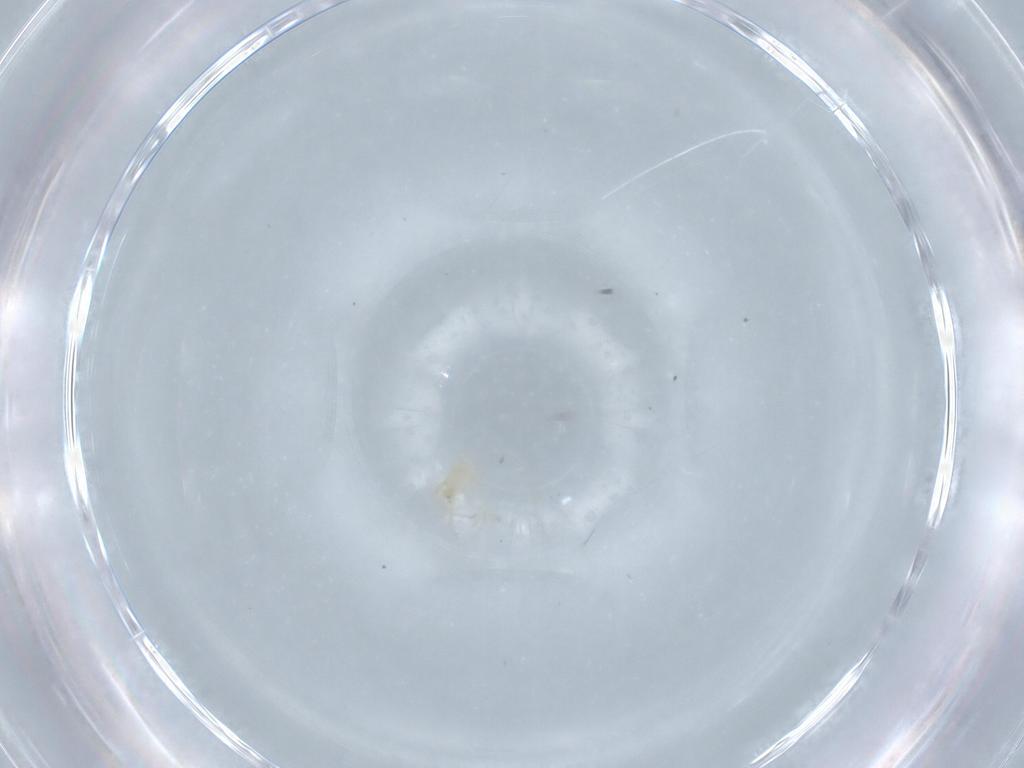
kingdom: Animalia
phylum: Arthropoda
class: Arachnida
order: Trombidiformes
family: Erythraeidae
